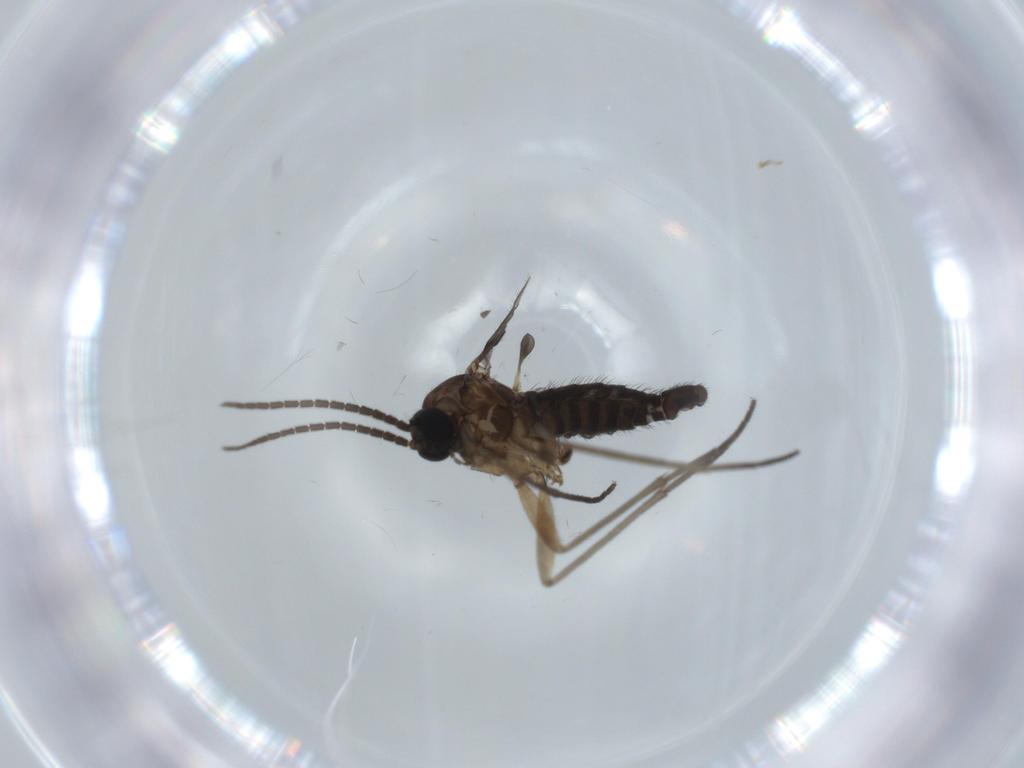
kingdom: Animalia
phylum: Arthropoda
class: Insecta
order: Diptera
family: Sciaridae
